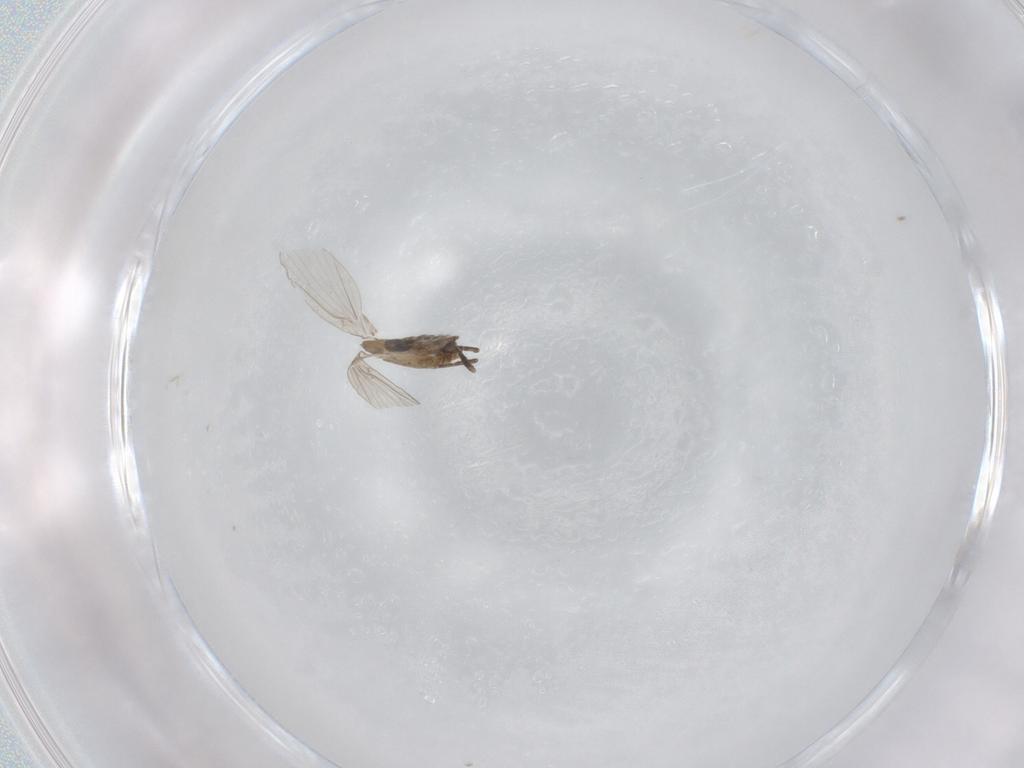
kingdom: Animalia
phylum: Arthropoda
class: Insecta
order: Diptera
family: Psychodidae
